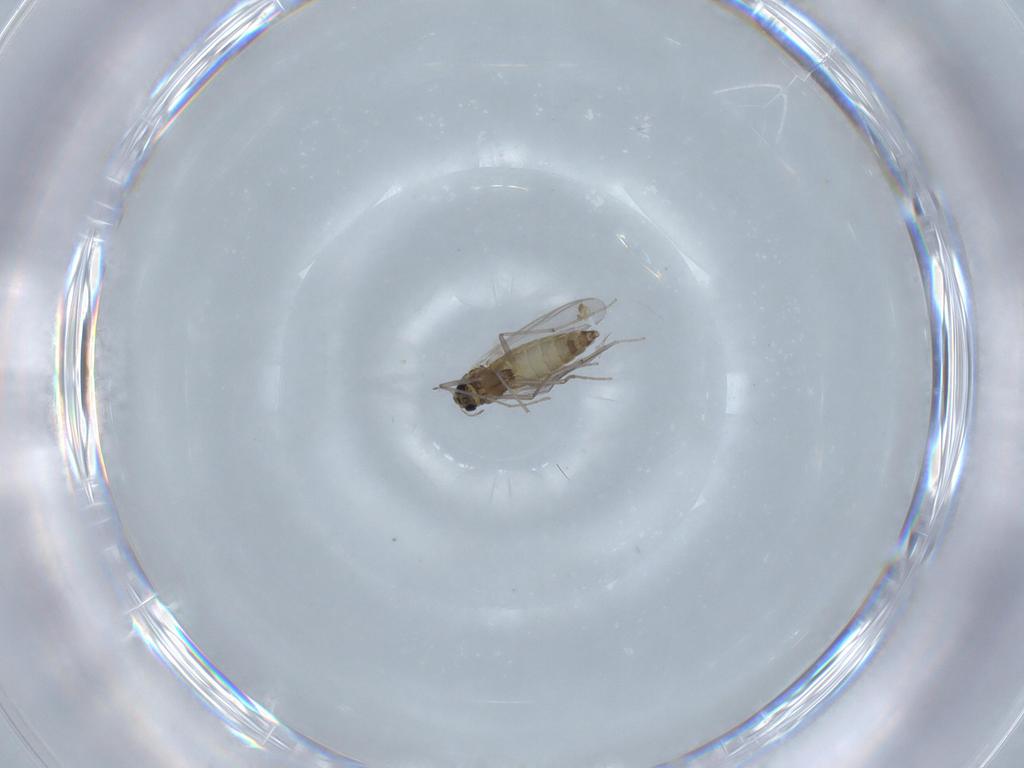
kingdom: Animalia
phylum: Arthropoda
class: Insecta
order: Diptera
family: Chironomidae
